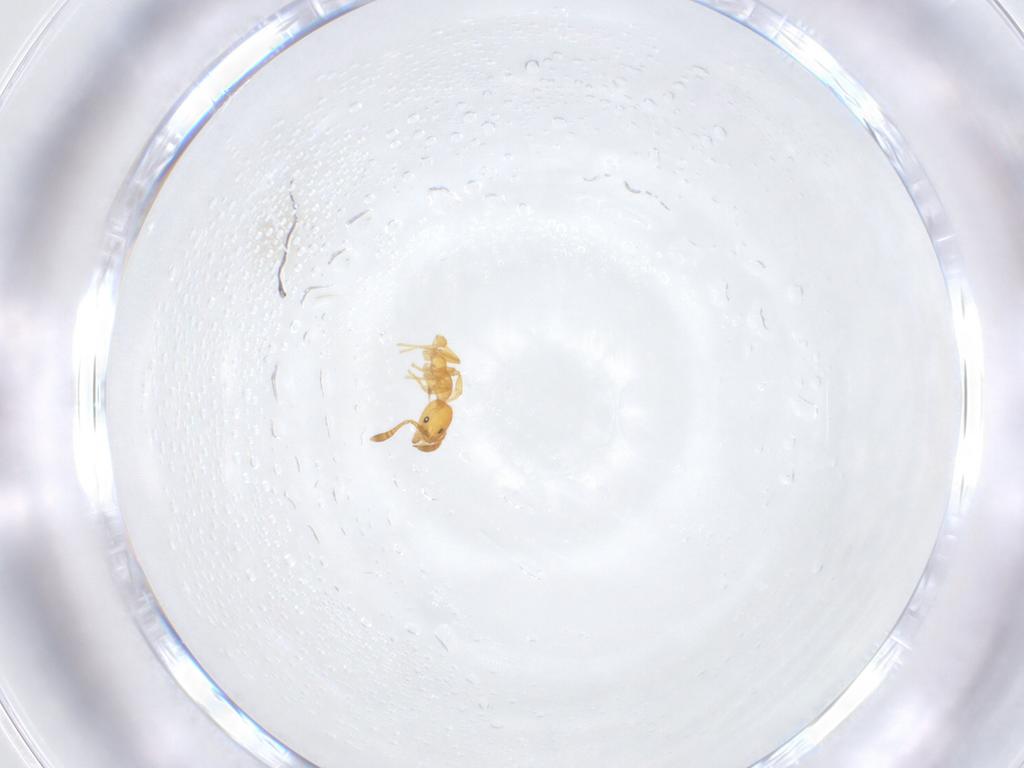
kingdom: Animalia
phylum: Arthropoda
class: Insecta
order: Hymenoptera
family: Formicidae
